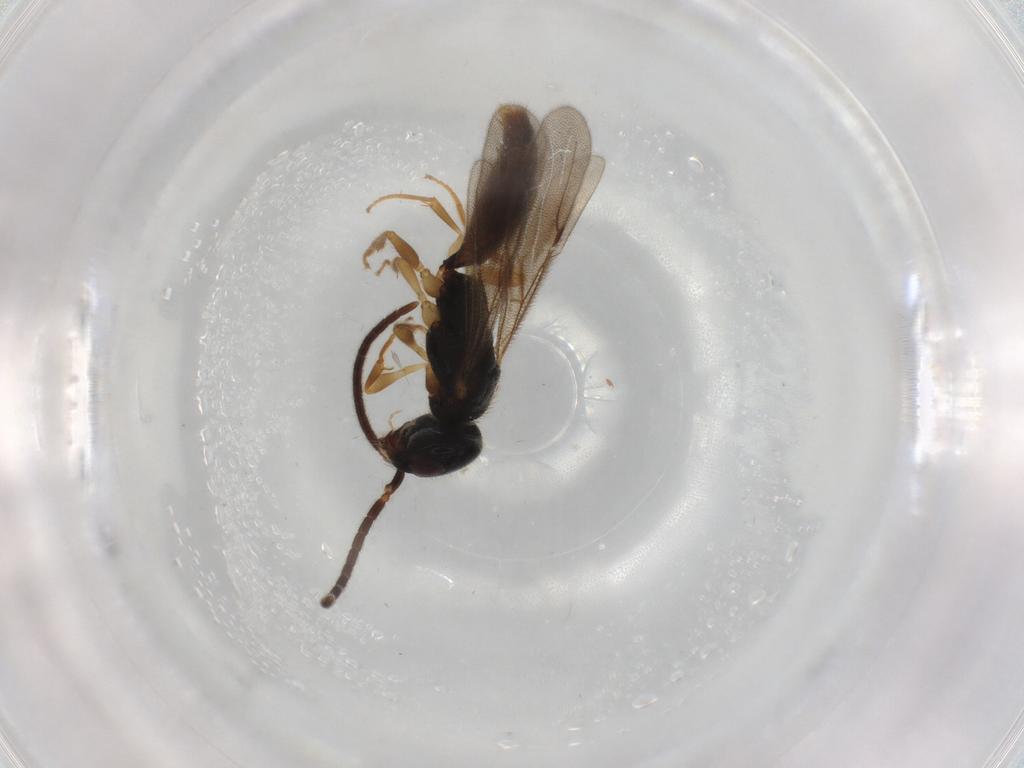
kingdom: Animalia
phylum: Arthropoda
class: Insecta
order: Hymenoptera
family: Bethylidae
